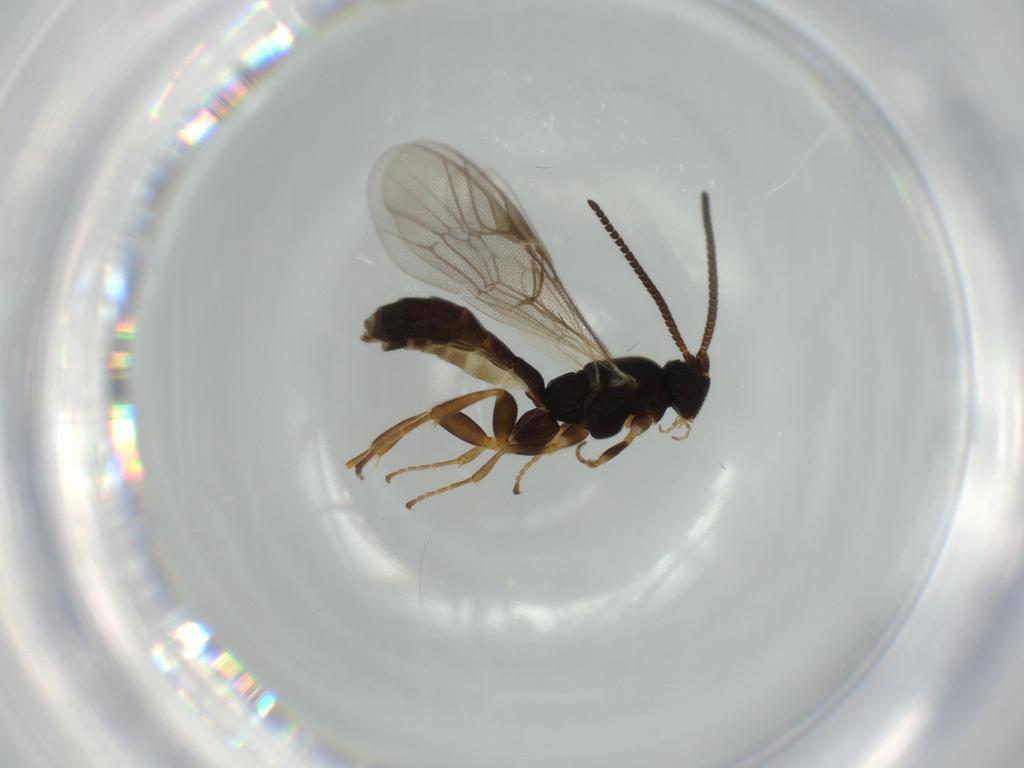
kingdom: Animalia
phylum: Arthropoda
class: Insecta
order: Hymenoptera
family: Ichneumonidae
